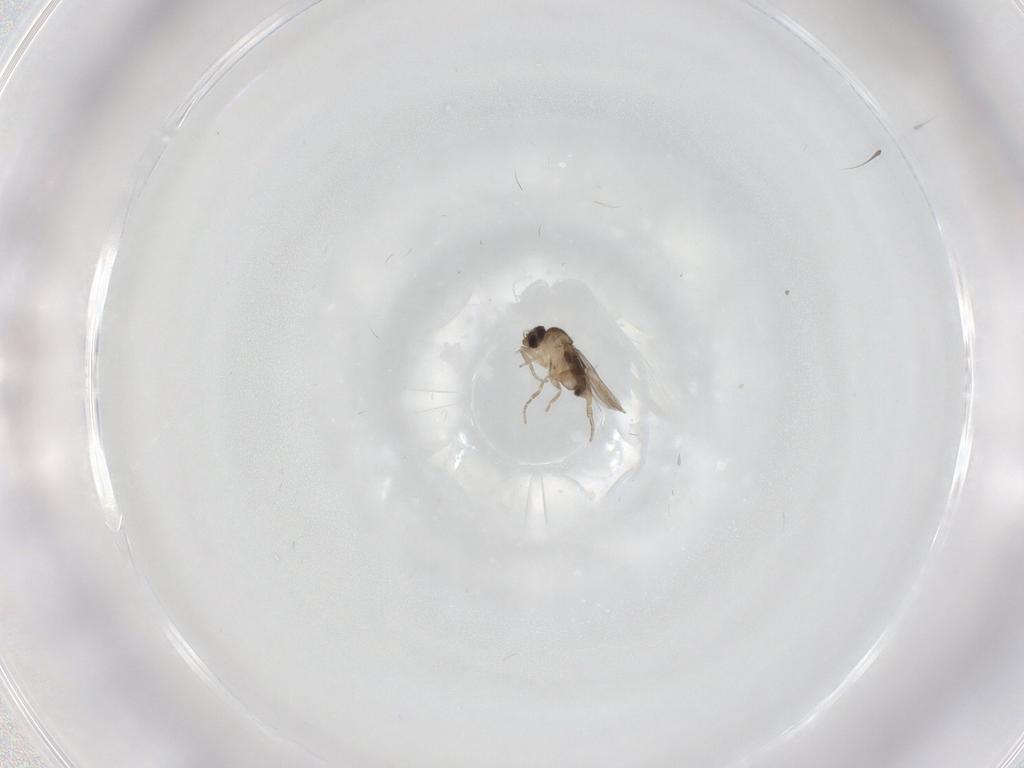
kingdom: Animalia
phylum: Arthropoda
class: Insecta
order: Diptera
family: Phoridae
